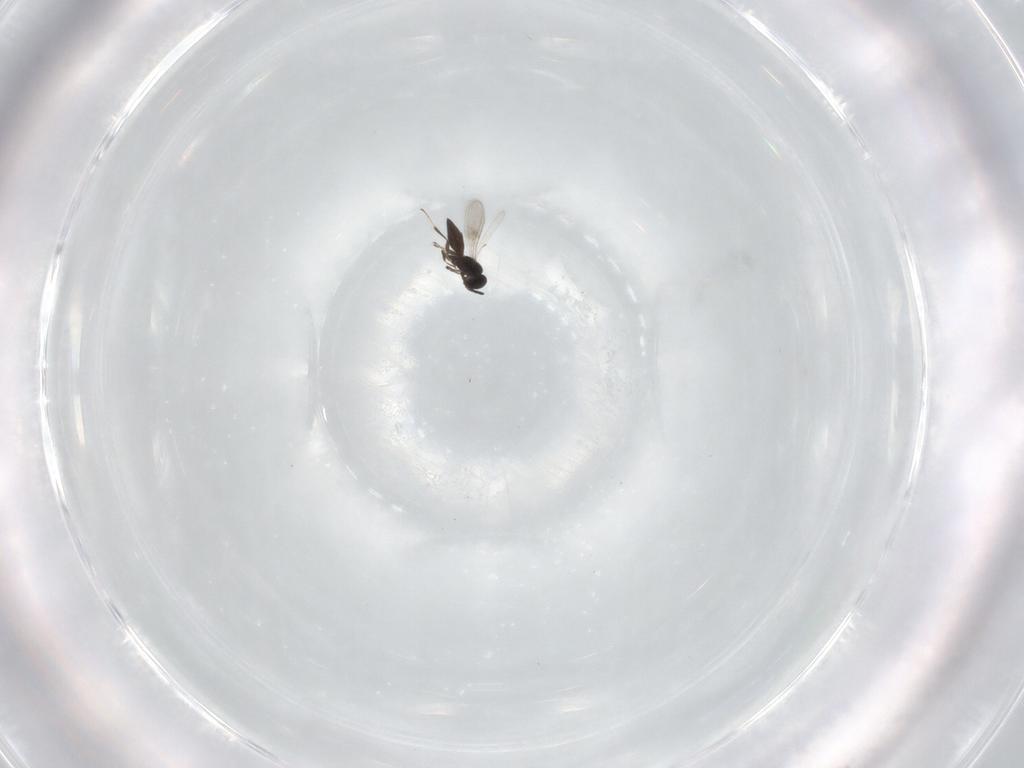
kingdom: Animalia
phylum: Arthropoda
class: Insecta
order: Hymenoptera
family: Scelionidae
